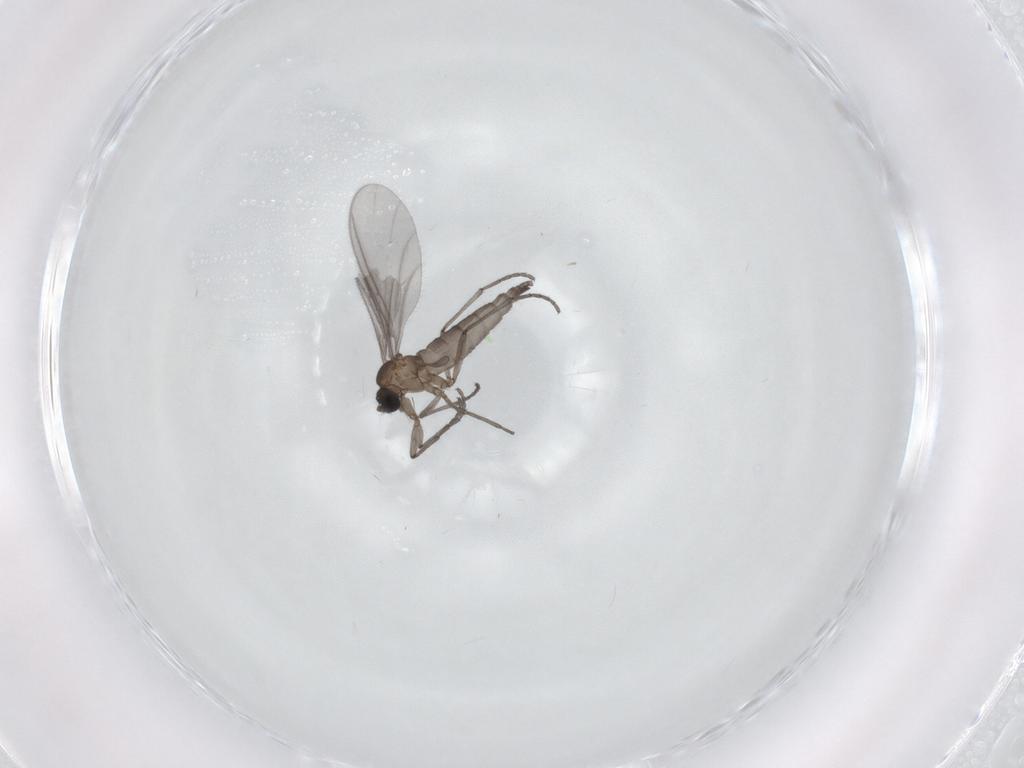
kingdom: Animalia
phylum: Arthropoda
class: Insecta
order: Diptera
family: Sciaridae
